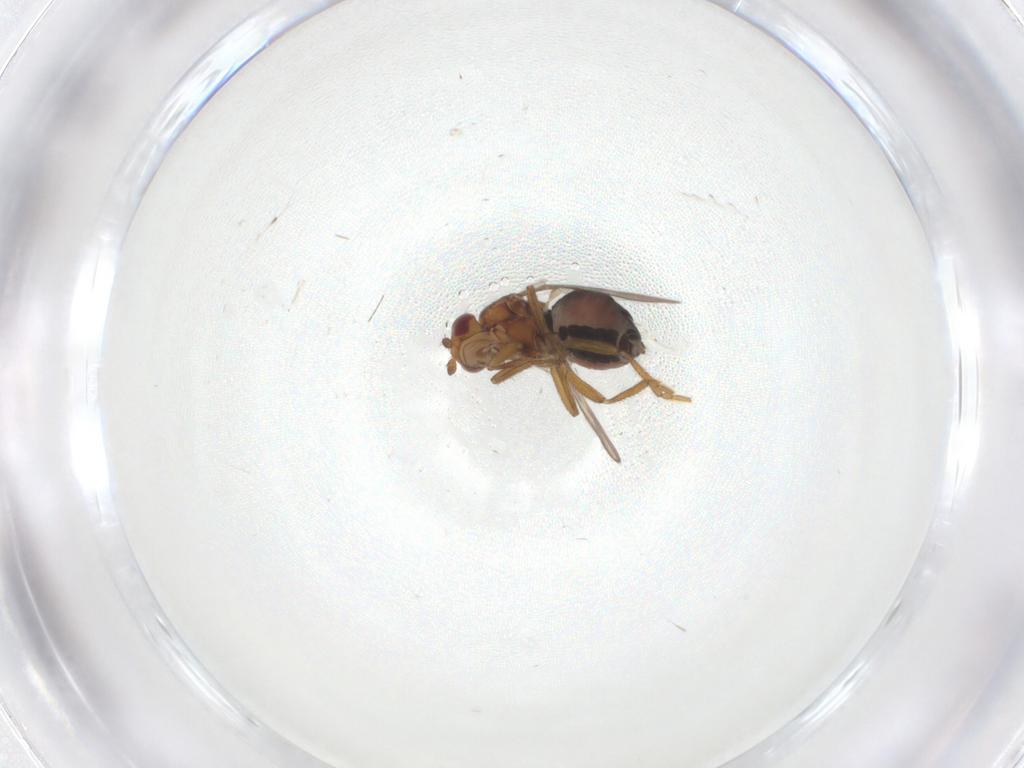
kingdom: Animalia
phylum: Arthropoda
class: Insecta
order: Diptera
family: Sphaeroceridae
